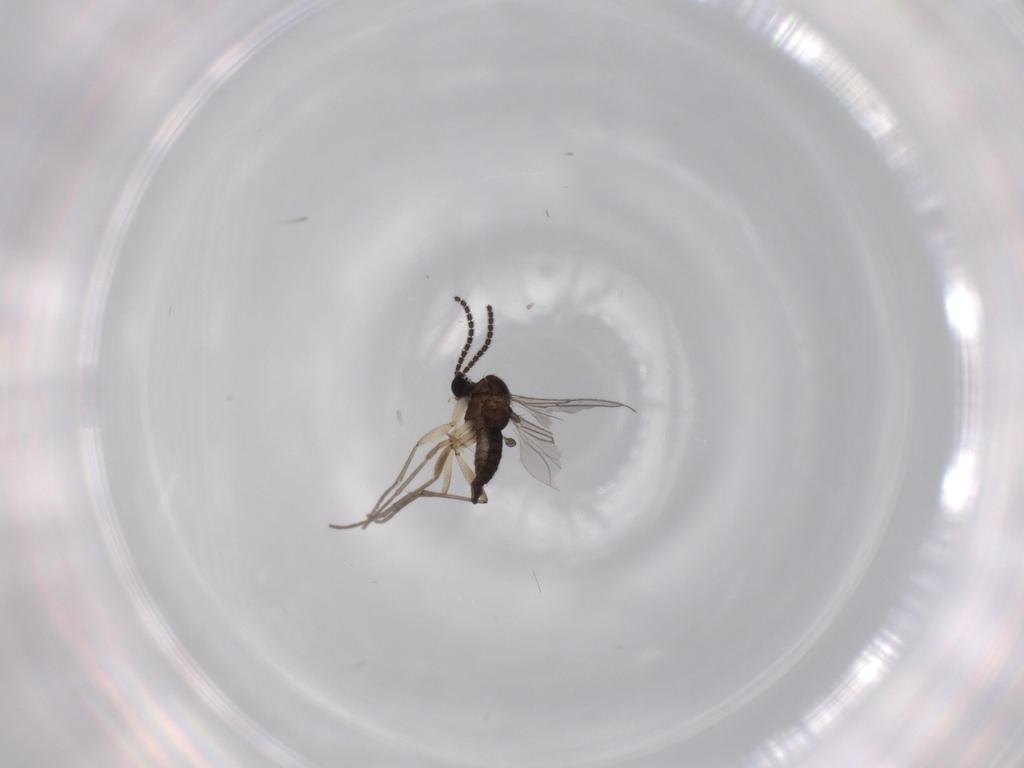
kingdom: Animalia
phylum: Arthropoda
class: Insecta
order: Diptera
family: Sciaridae
